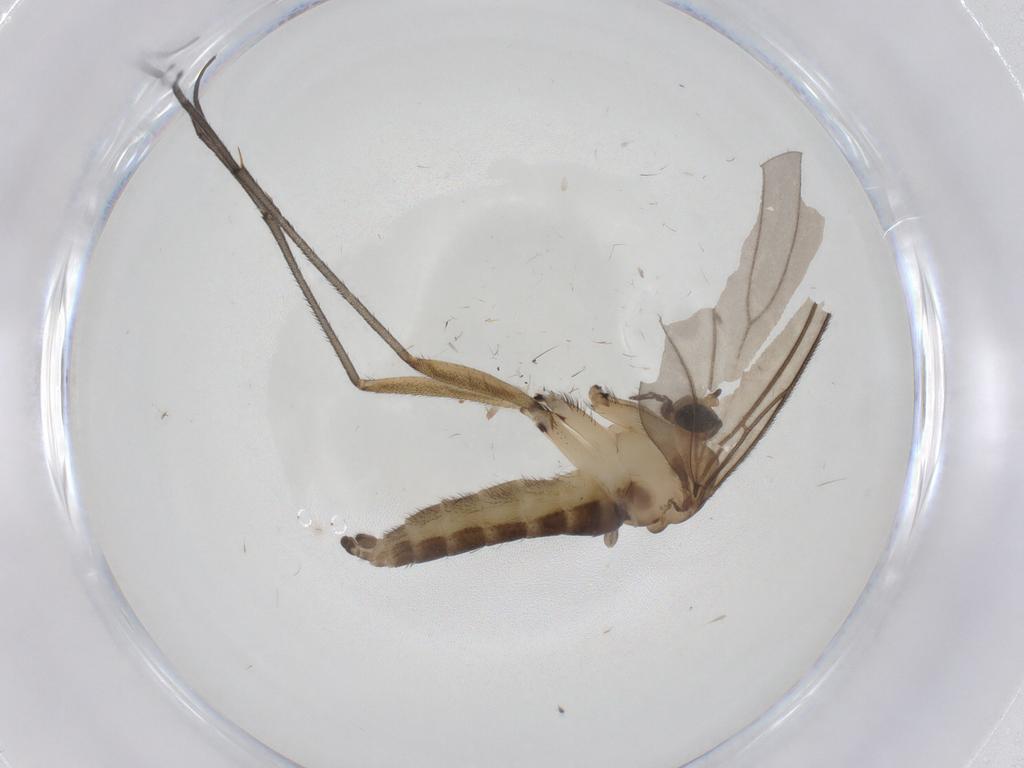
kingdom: Animalia
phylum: Arthropoda
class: Insecta
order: Diptera
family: Sciaridae
